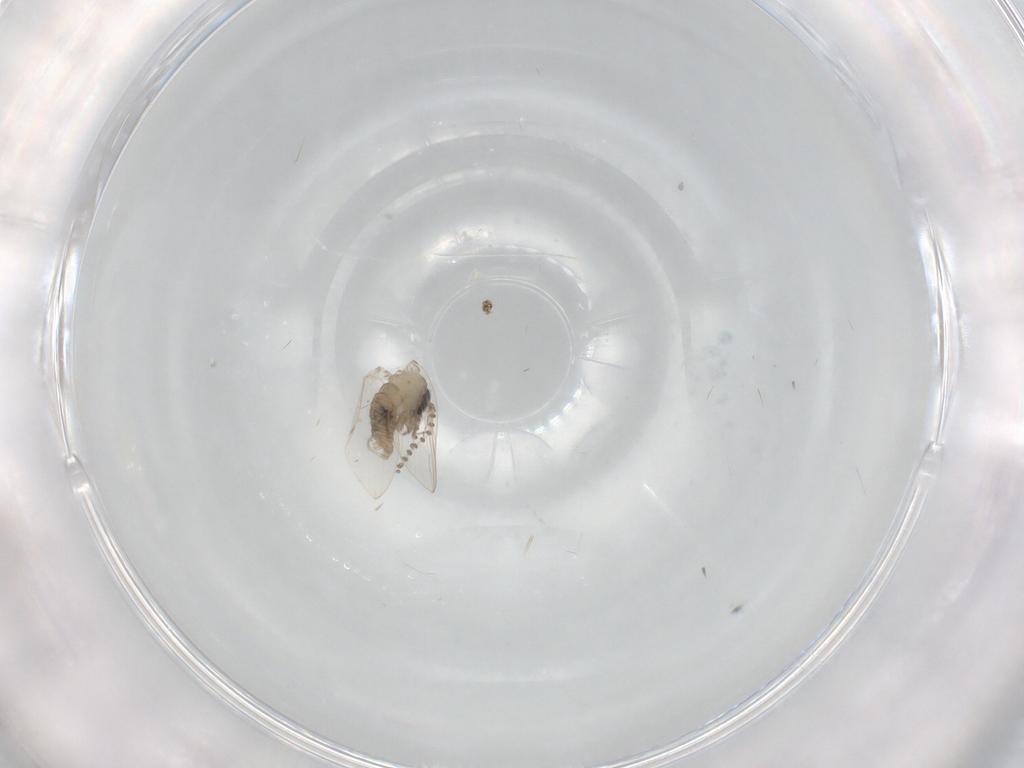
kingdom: Animalia
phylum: Arthropoda
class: Insecta
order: Diptera
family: Psychodidae
